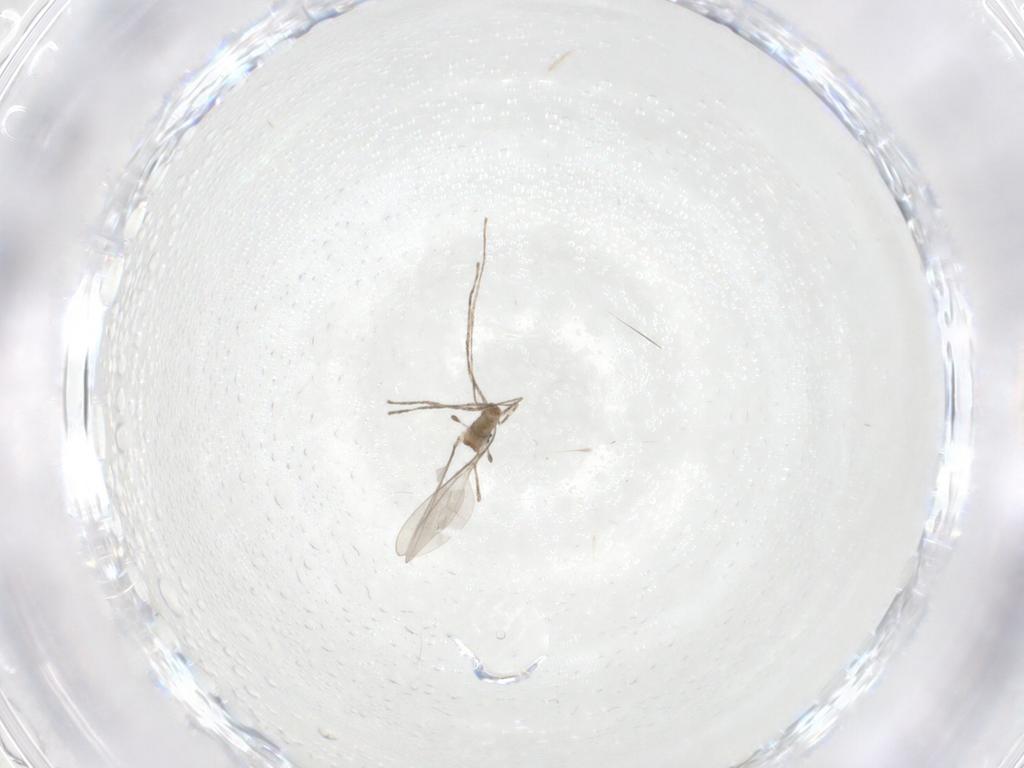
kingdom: Animalia
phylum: Arthropoda
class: Insecta
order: Diptera
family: Cecidomyiidae
